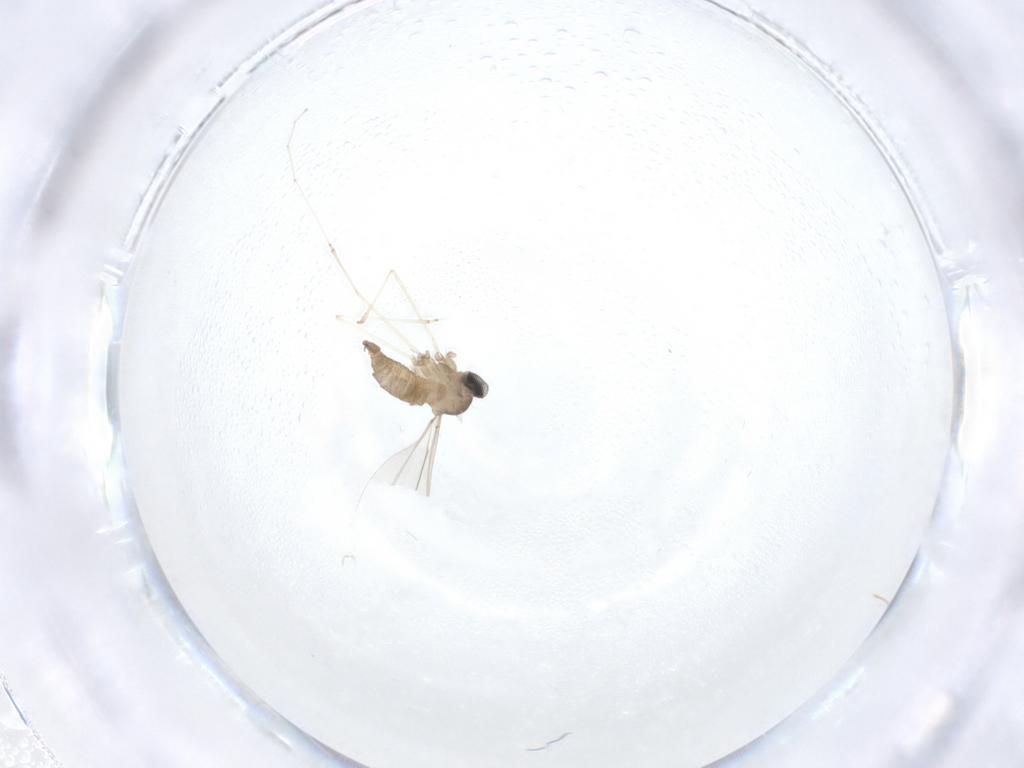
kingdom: Animalia
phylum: Arthropoda
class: Insecta
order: Diptera
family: Cecidomyiidae
